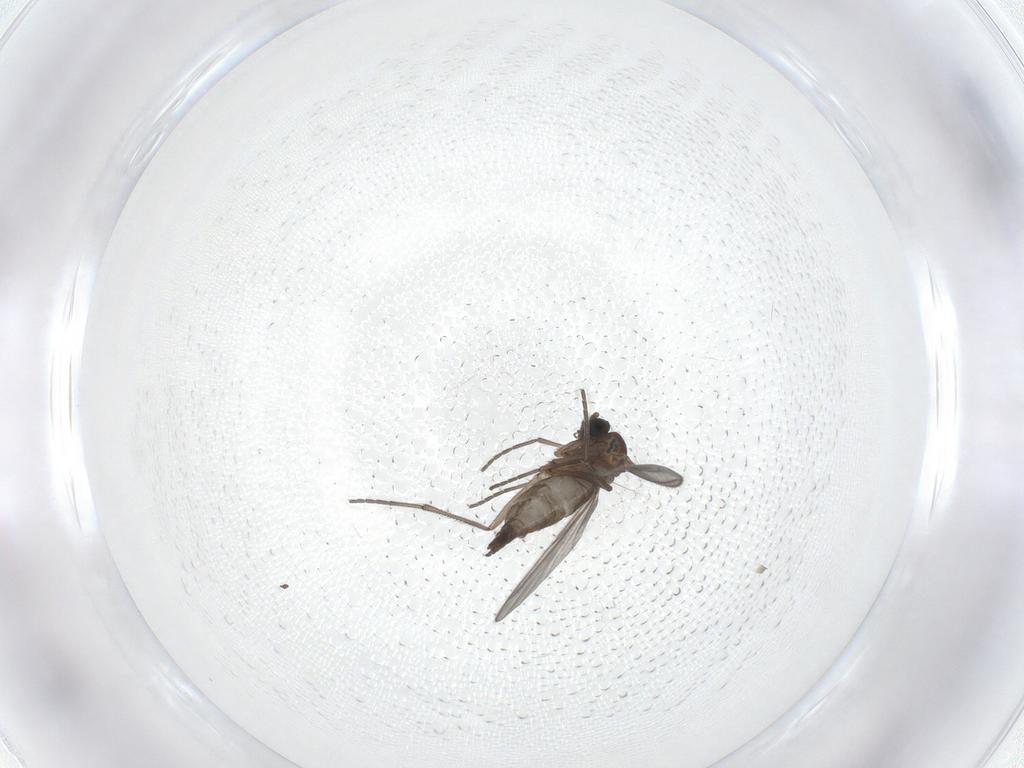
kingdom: Animalia
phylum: Arthropoda
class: Insecta
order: Diptera
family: Sciaridae
